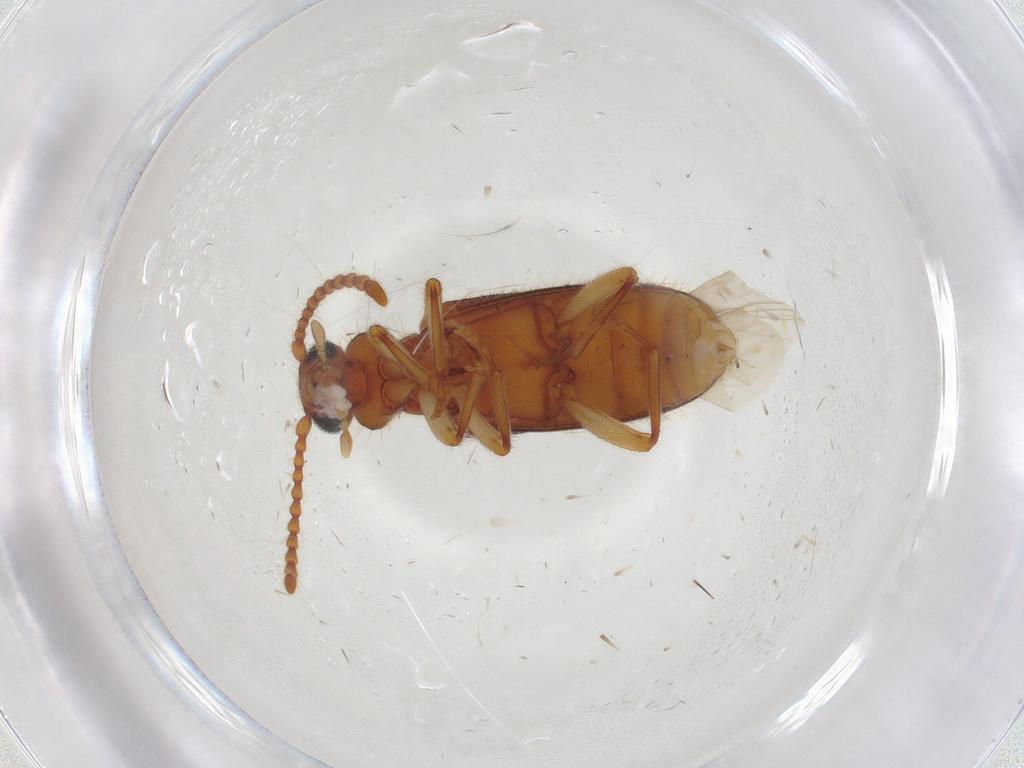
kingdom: Animalia
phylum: Arthropoda
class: Insecta
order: Coleoptera
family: Anthicidae
